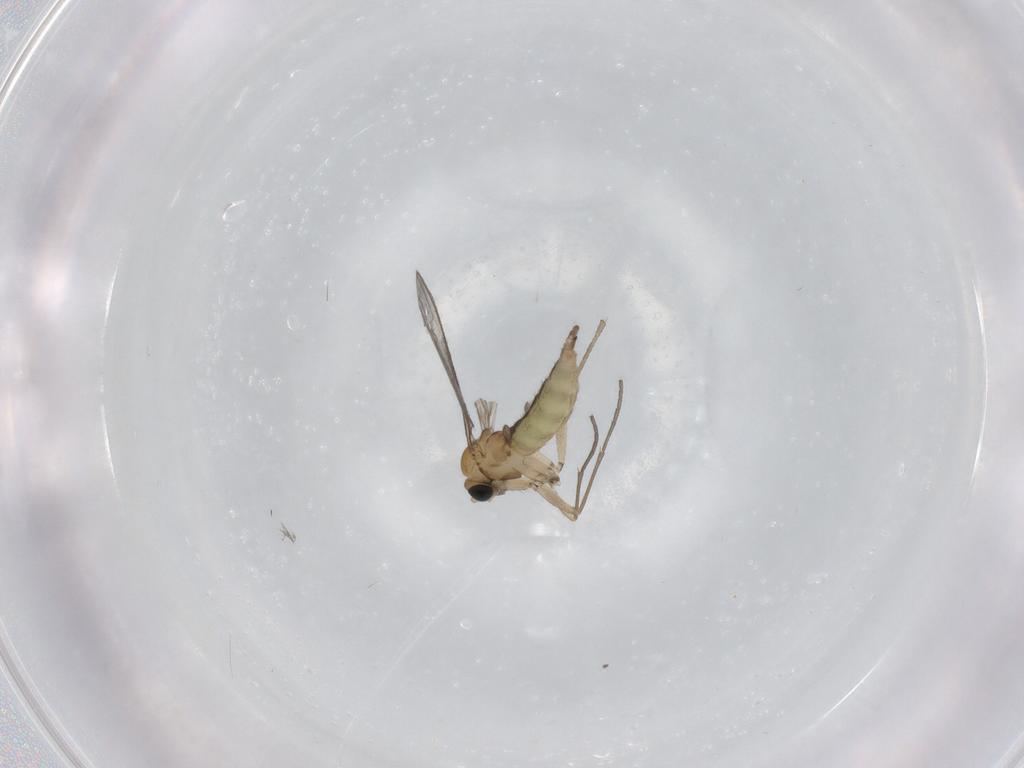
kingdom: Animalia
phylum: Arthropoda
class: Insecta
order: Diptera
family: Sciaridae
